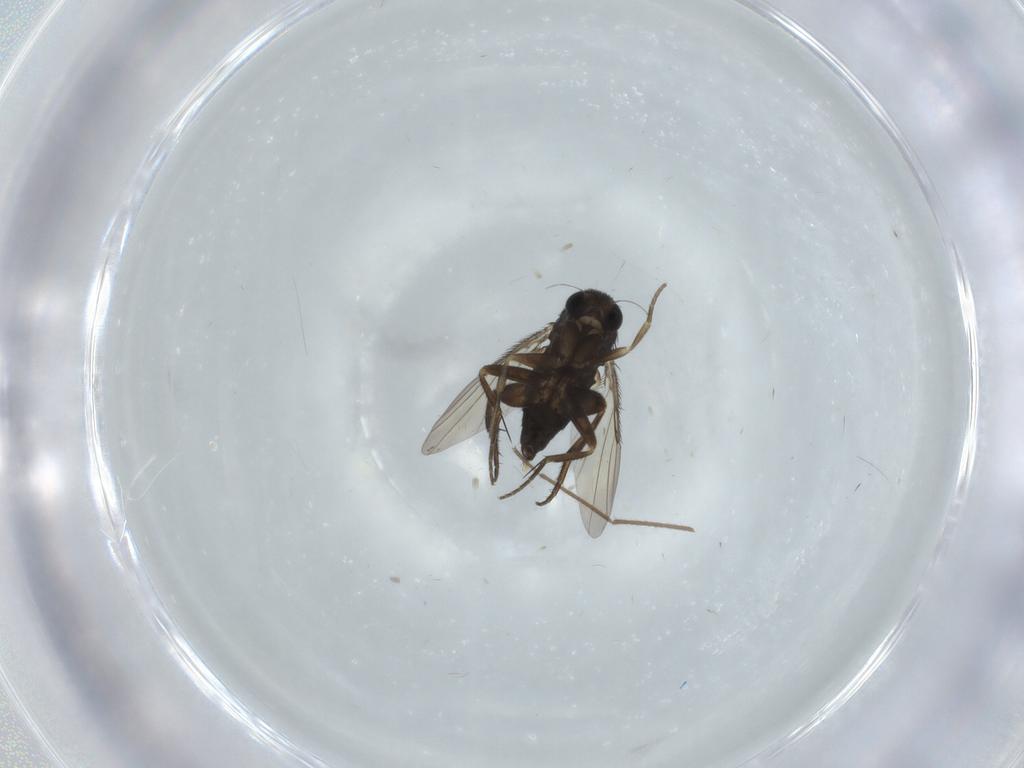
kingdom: Animalia
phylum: Arthropoda
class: Insecta
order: Diptera
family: Phoridae
